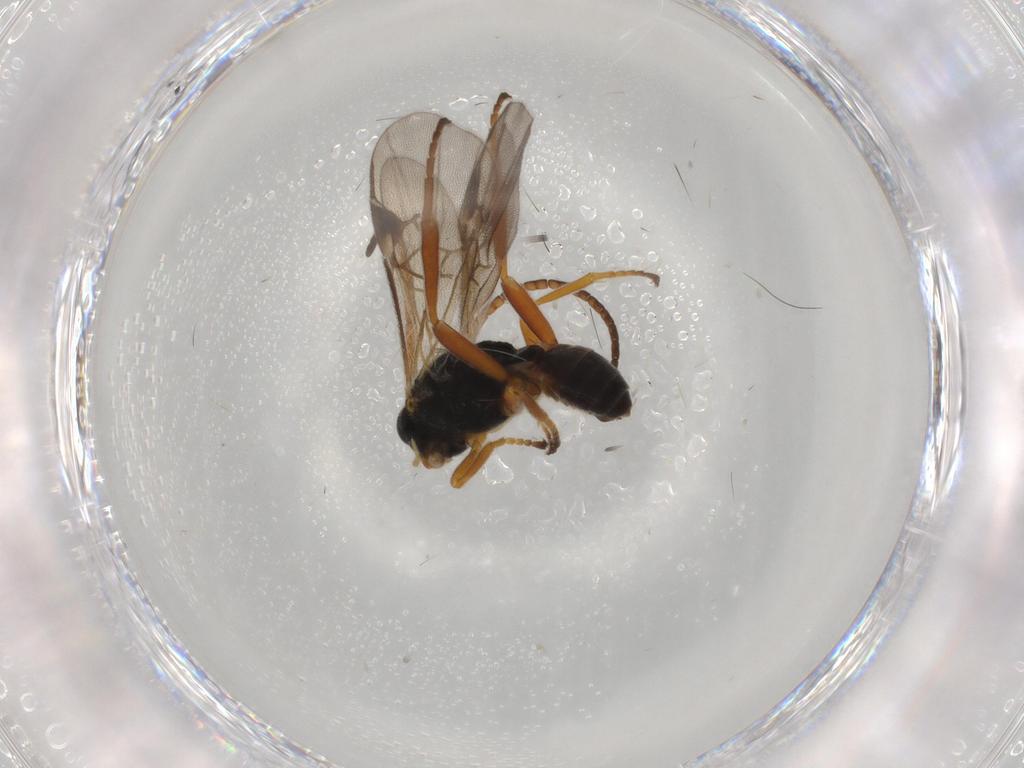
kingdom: Animalia
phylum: Arthropoda
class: Insecta
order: Hymenoptera
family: Braconidae
